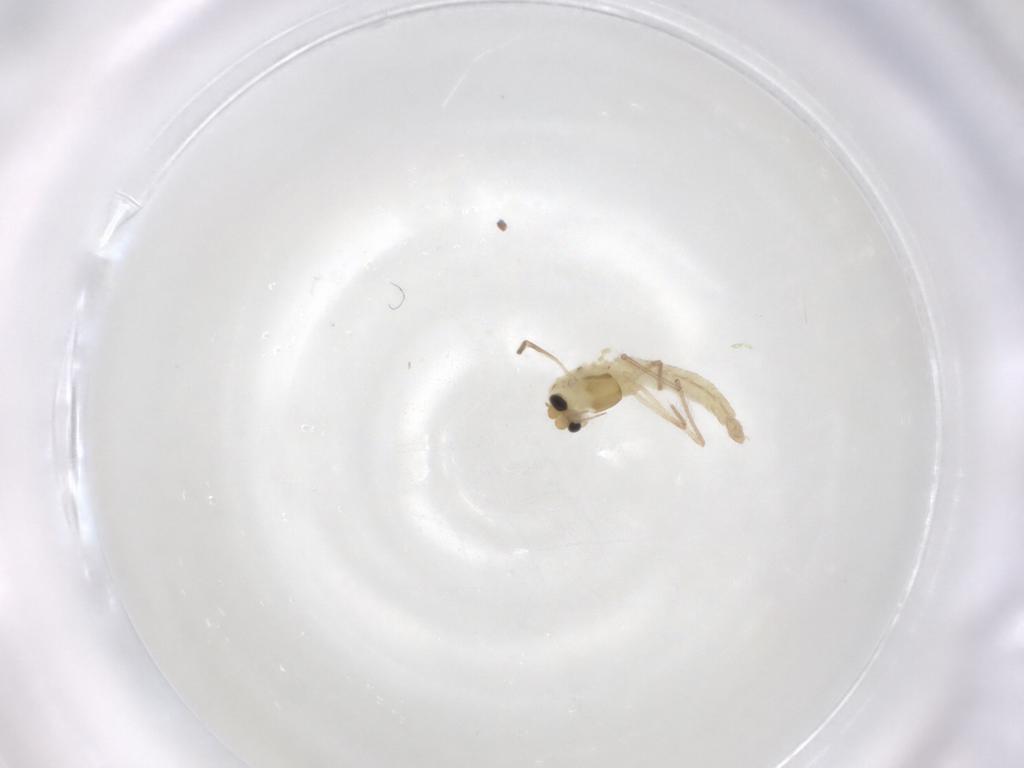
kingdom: Animalia
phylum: Arthropoda
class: Insecta
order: Diptera
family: Chironomidae
